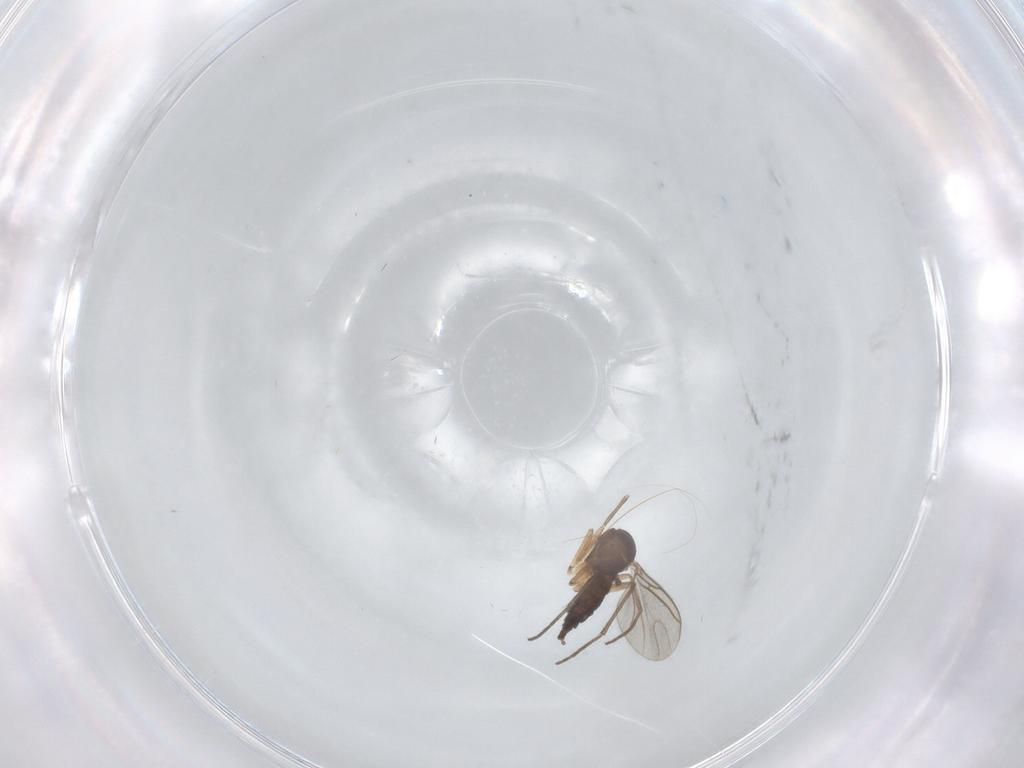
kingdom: Animalia
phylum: Arthropoda
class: Insecta
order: Diptera
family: Sciaridae
